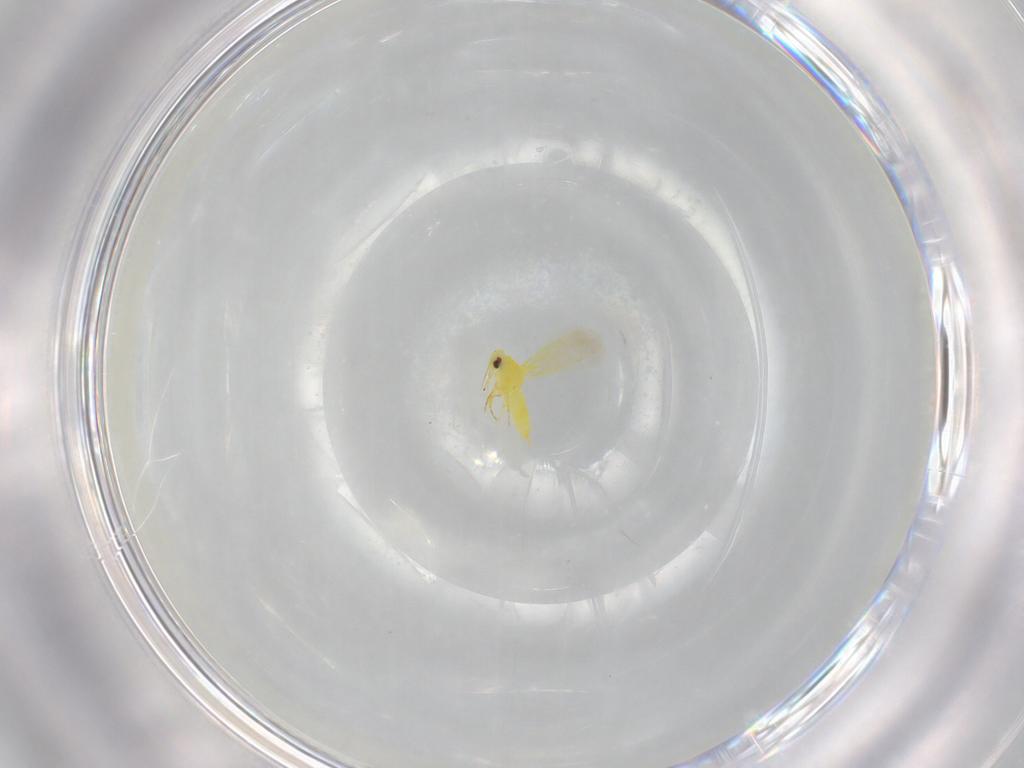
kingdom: Animalia
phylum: Arthropoda
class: Insecta
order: Hemiptera
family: Aleyrodidae
